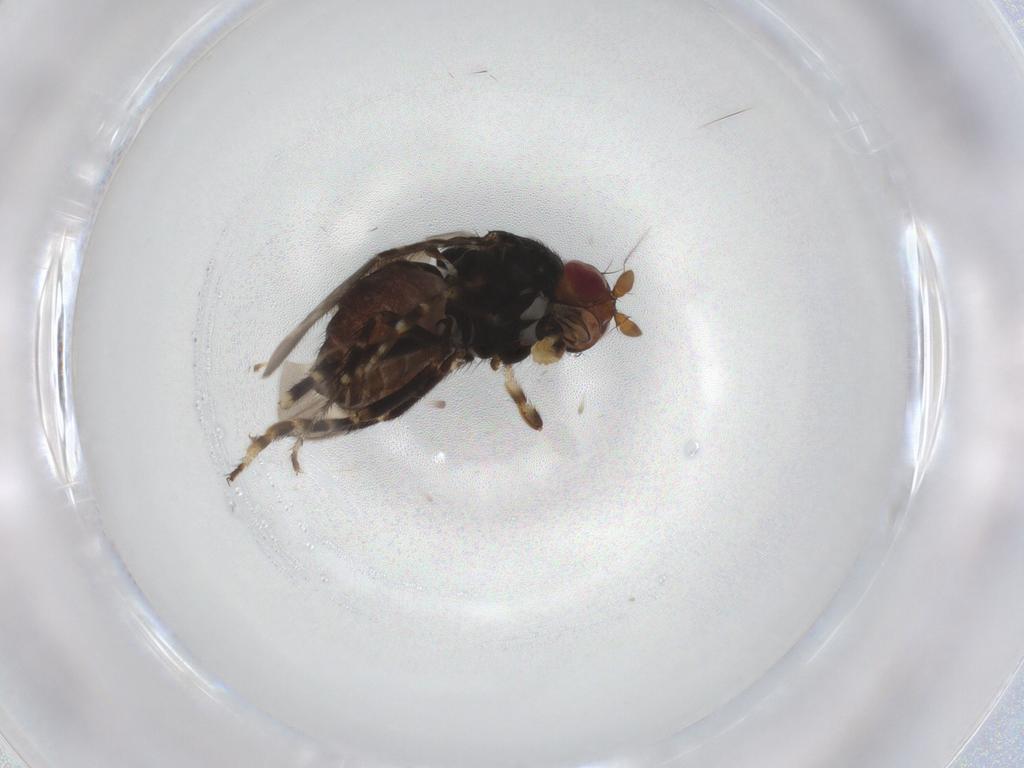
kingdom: Animalia
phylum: Arthropoda
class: Insecta
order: Diptera
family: Sphaeroceridae
